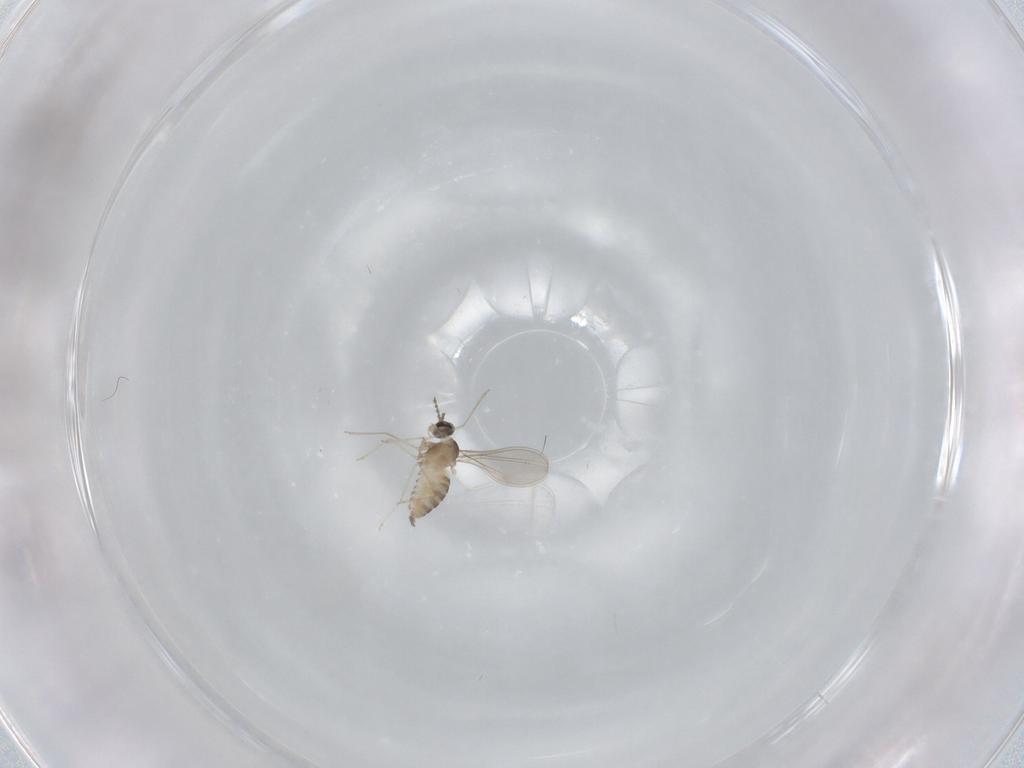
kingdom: Animalia
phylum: Arthropoda
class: Insecta
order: Diptera
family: Cecidomyiidae
